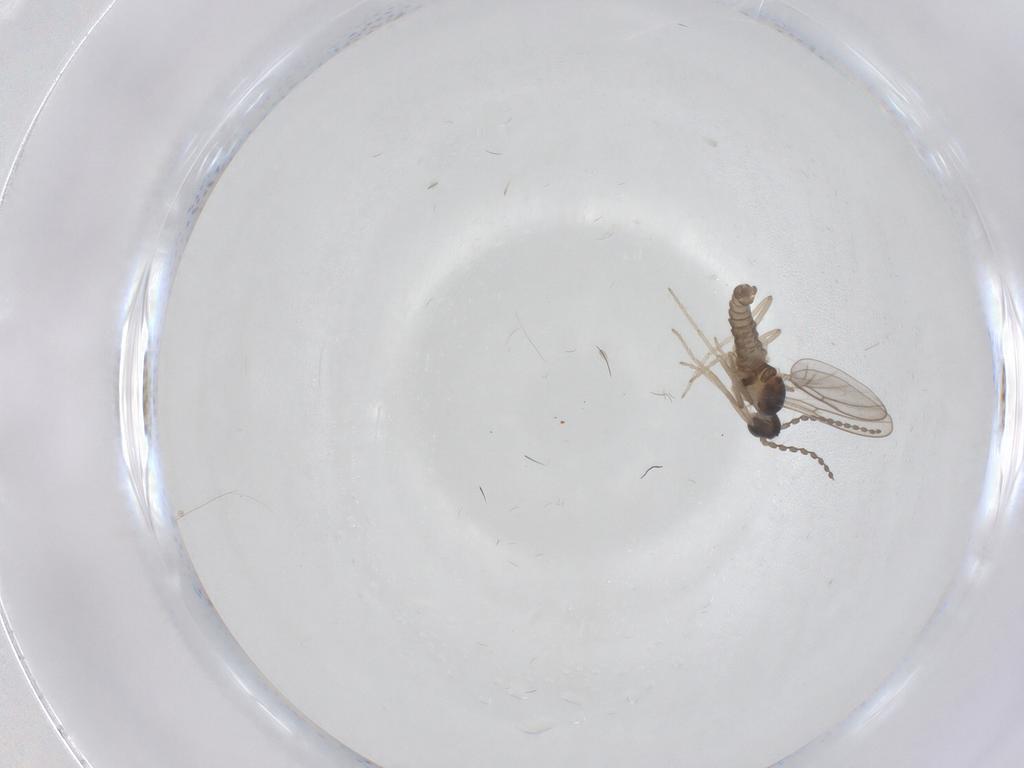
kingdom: Animalia
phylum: Arthropoda
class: Insecta
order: Diptera
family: Cecidomyiidae
